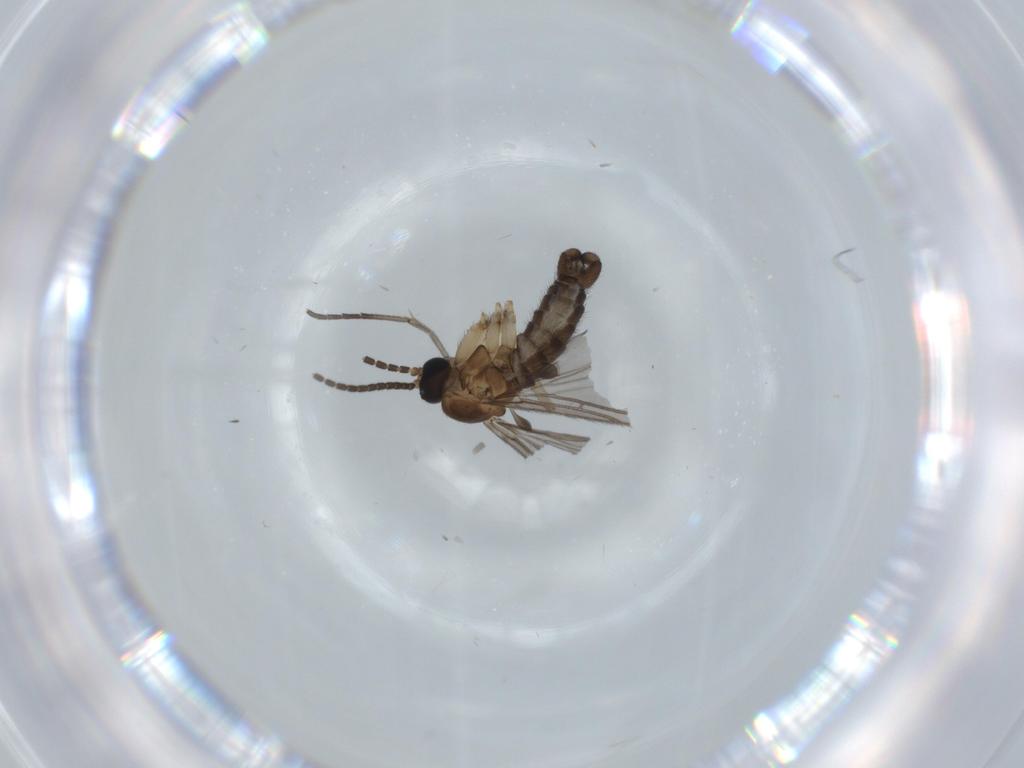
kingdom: Animalia
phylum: Arthropoda
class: Insecta
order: Diptera
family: Sciaridae
